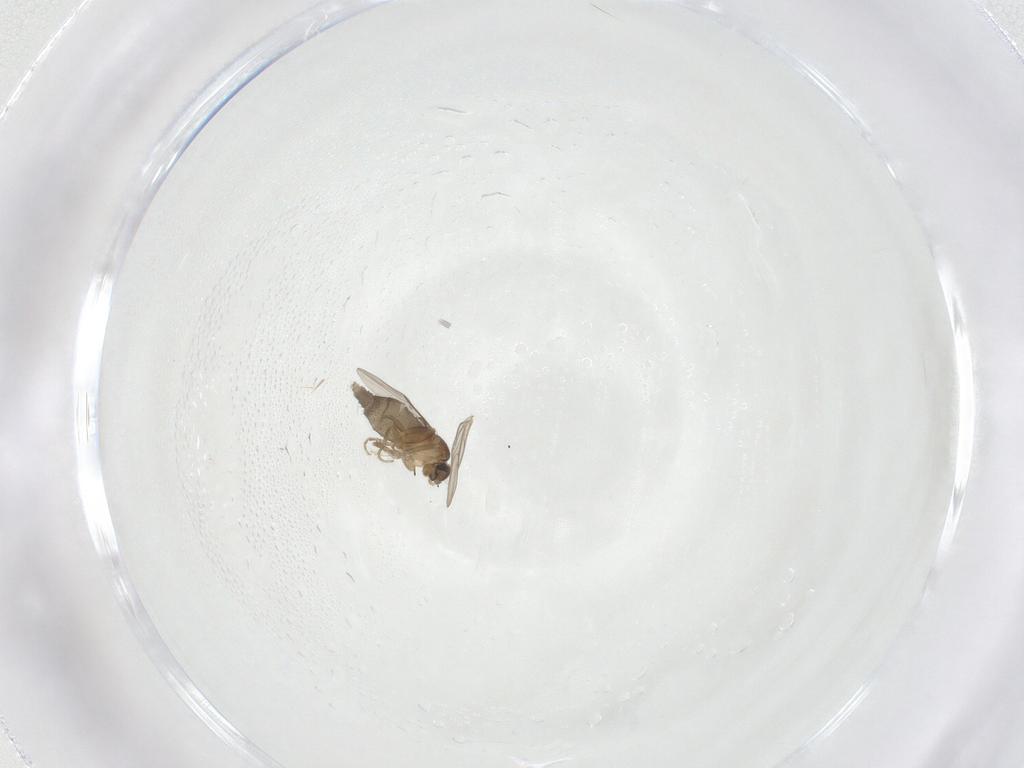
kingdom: Animalia
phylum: Arthropoda
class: Insecta
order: Diptera
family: Phoridae
